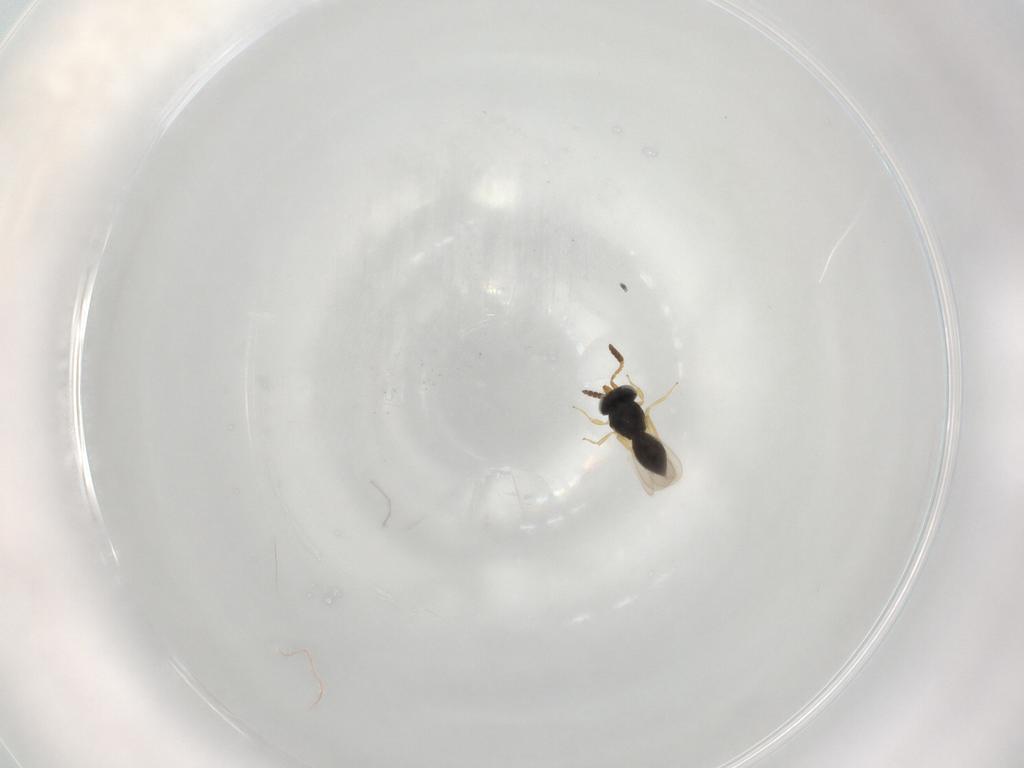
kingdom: Animalia
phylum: Arthropoda
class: Insecta
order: Hymenoptera
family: Scelionidae
